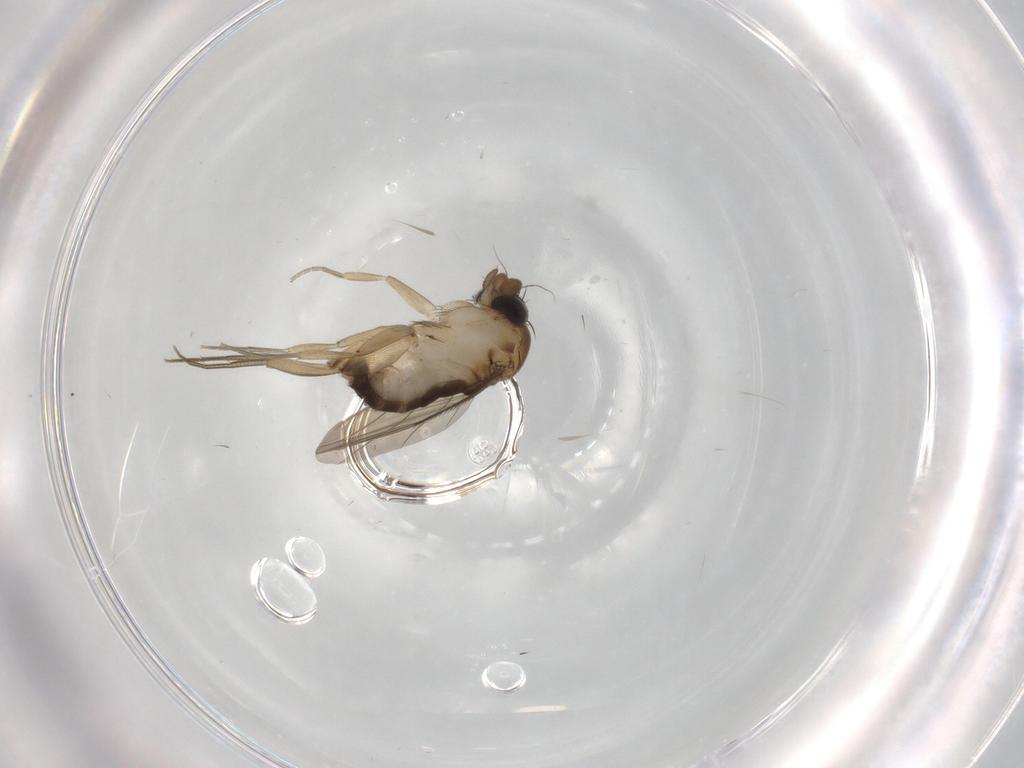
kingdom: Animalia
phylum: Arthropoda
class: Insecta
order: Diptera
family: Phoridae
